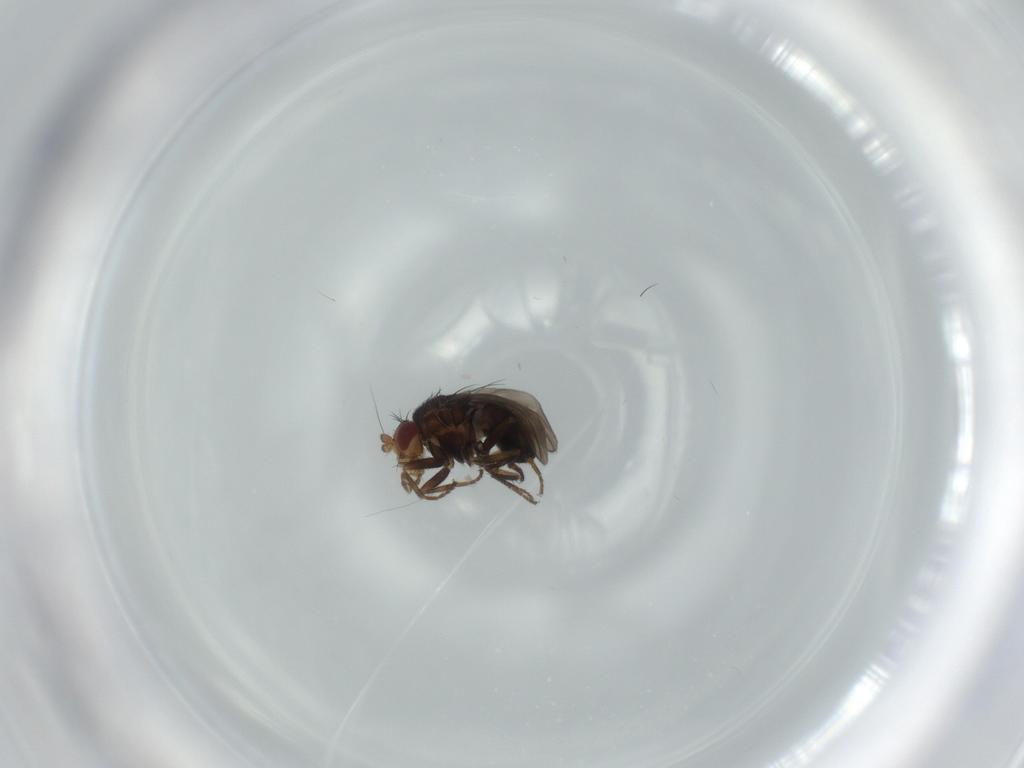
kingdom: Animalia
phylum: Arthropoda
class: Insecta
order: Diptera
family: Sphaeroceridae
